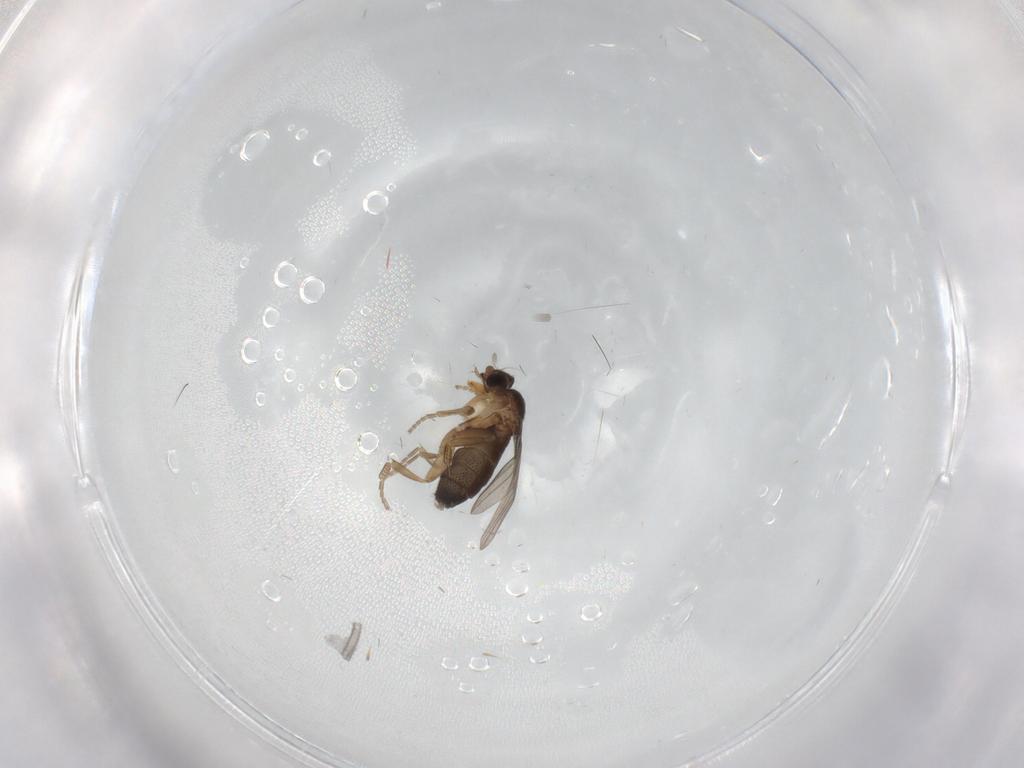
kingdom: Animalia
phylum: Arthropoda
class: Insecta
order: Diptera
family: Phoridae
